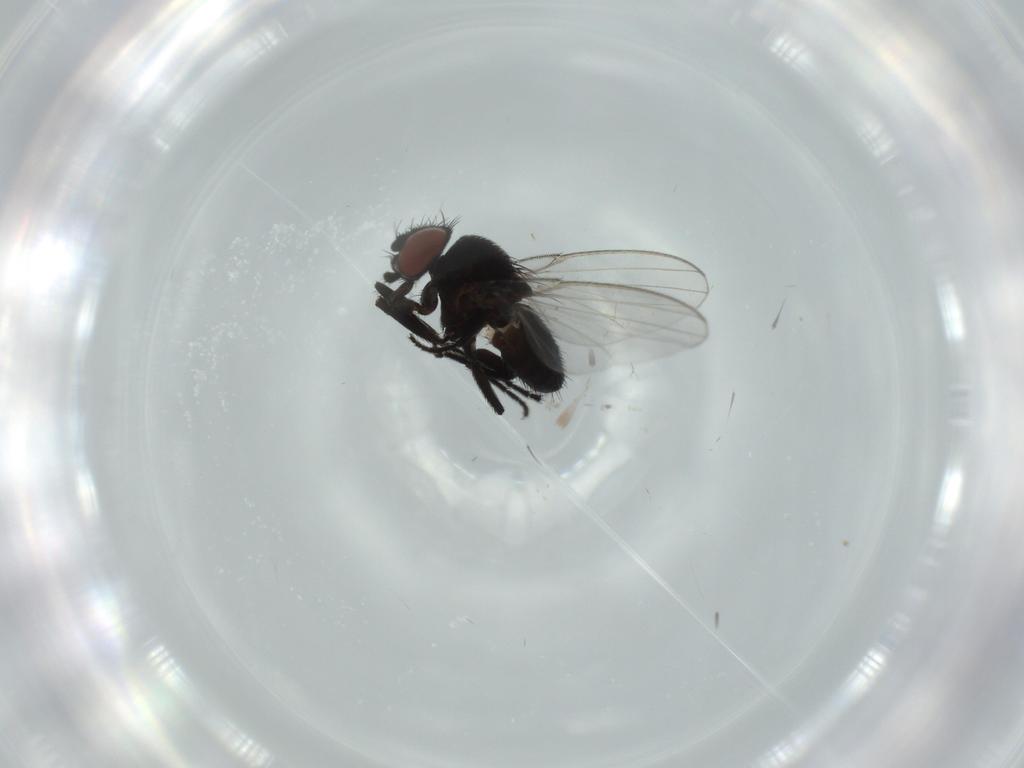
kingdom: Animalia
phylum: Arthropoda
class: Insecta
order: Diptera
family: Milichiidae
